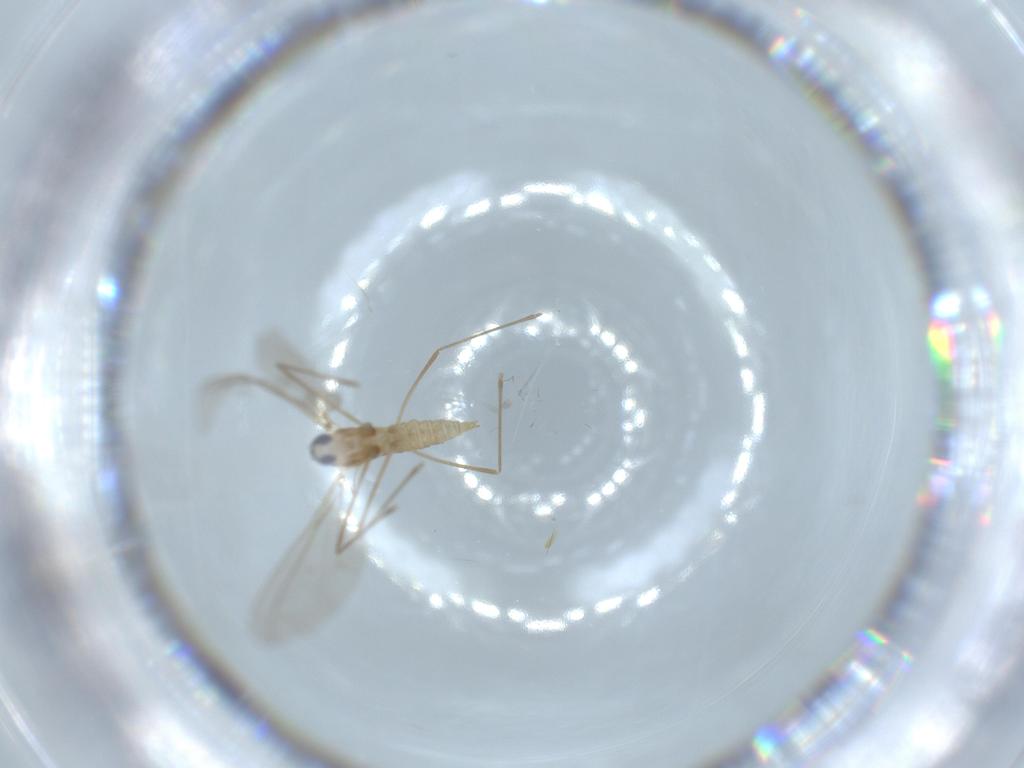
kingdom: Animalia
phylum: Arthropoda
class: Insecta
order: Diptera
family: Cecidomyiidae
